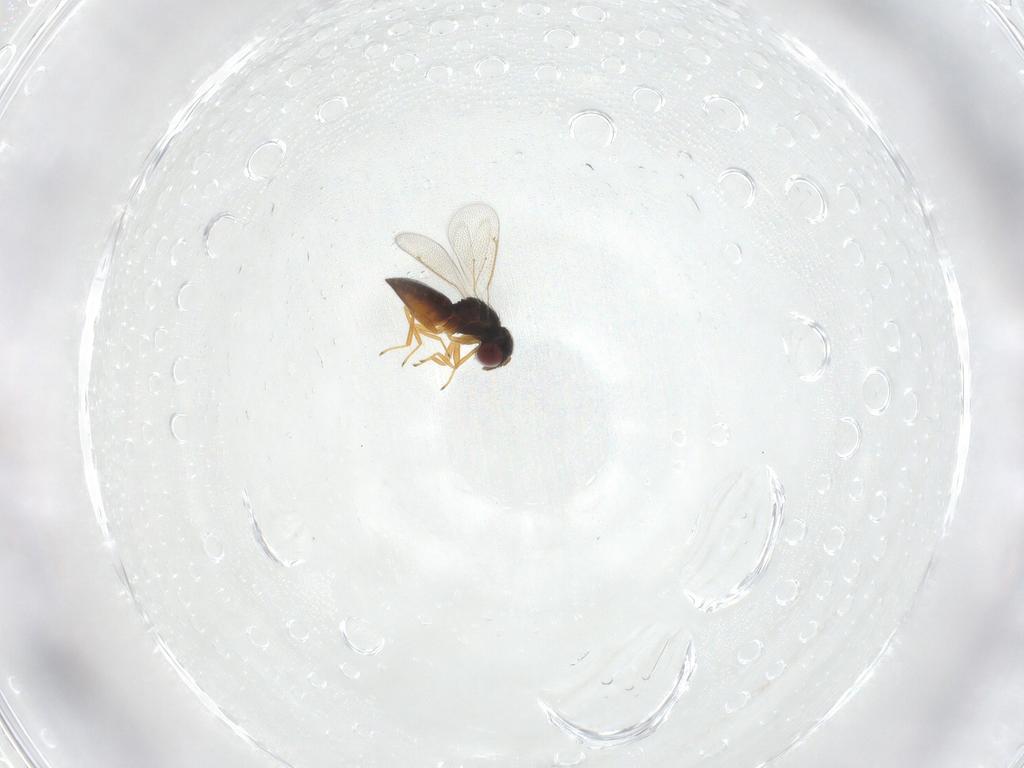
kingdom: Animalia
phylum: Arthropoda
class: Insecta
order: Hymenoptera
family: Eulophidae
